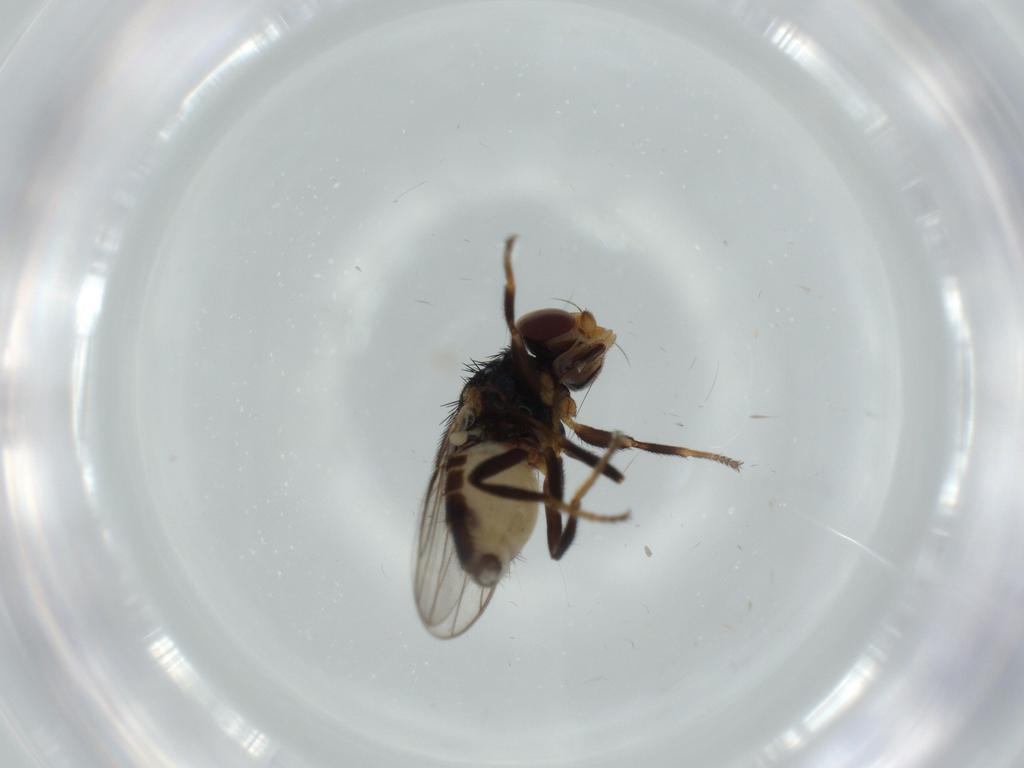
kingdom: Animalia
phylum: Arthropoda
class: Insecta
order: Diptera
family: Chloropidae
